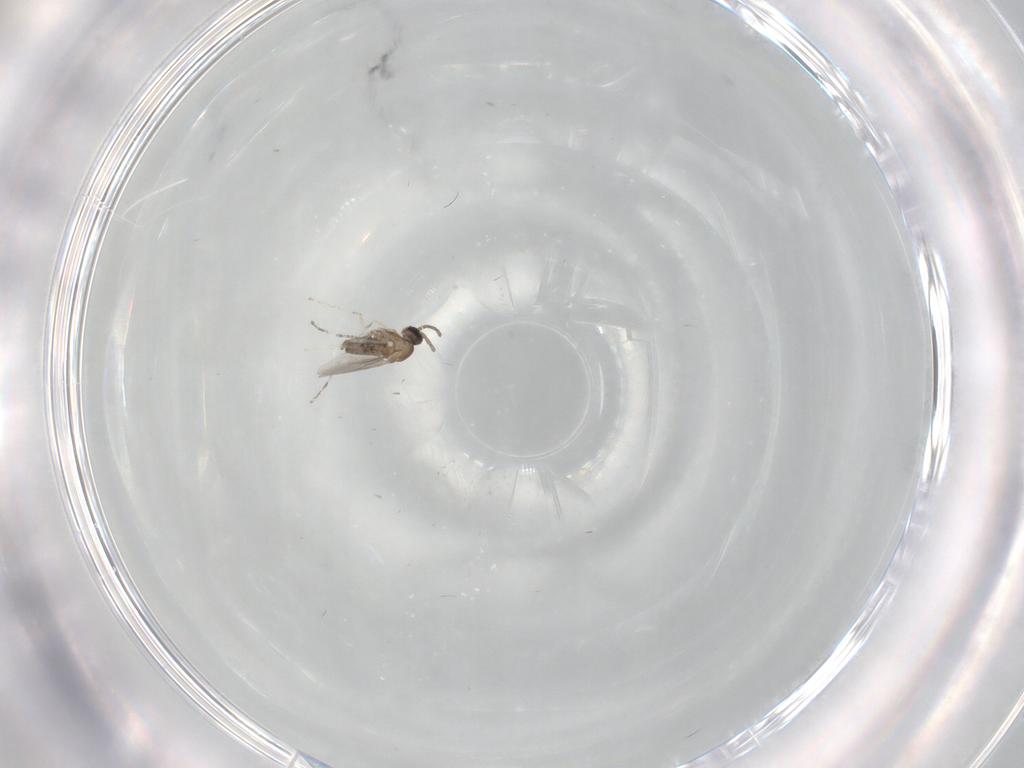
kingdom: Animalia
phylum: Arthropoda
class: Insecta
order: Diptera
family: Cecidomyiidae
